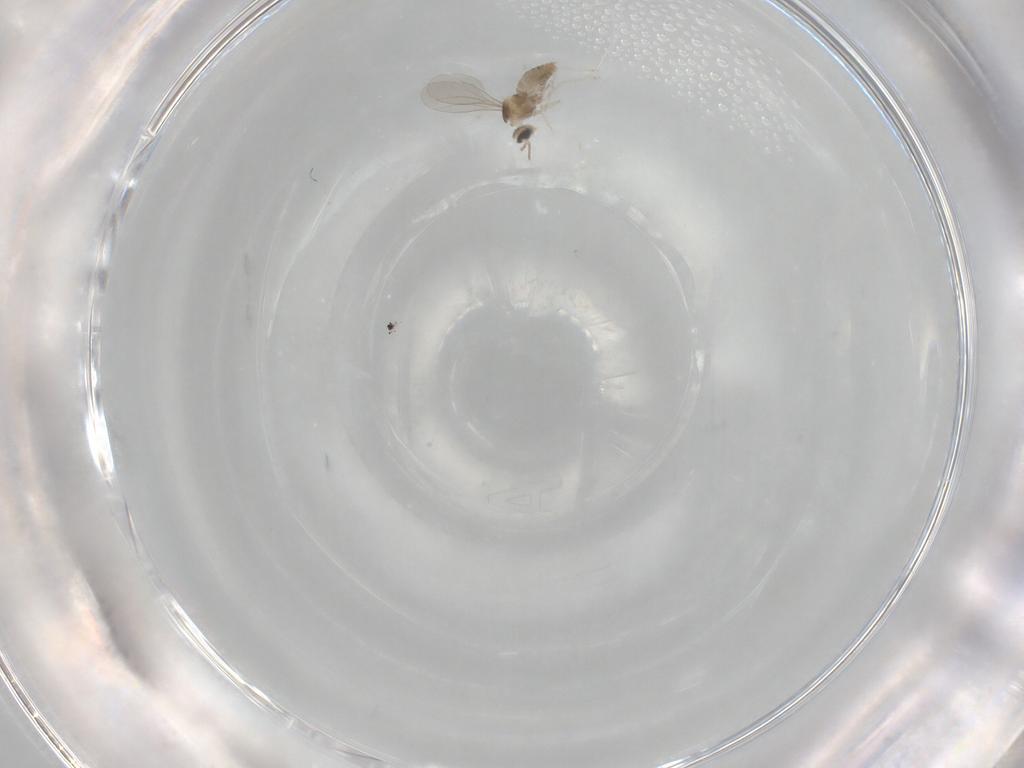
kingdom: Animalia
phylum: Arthropoda
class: Insecta
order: Diptera
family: Cecidomyiidae
